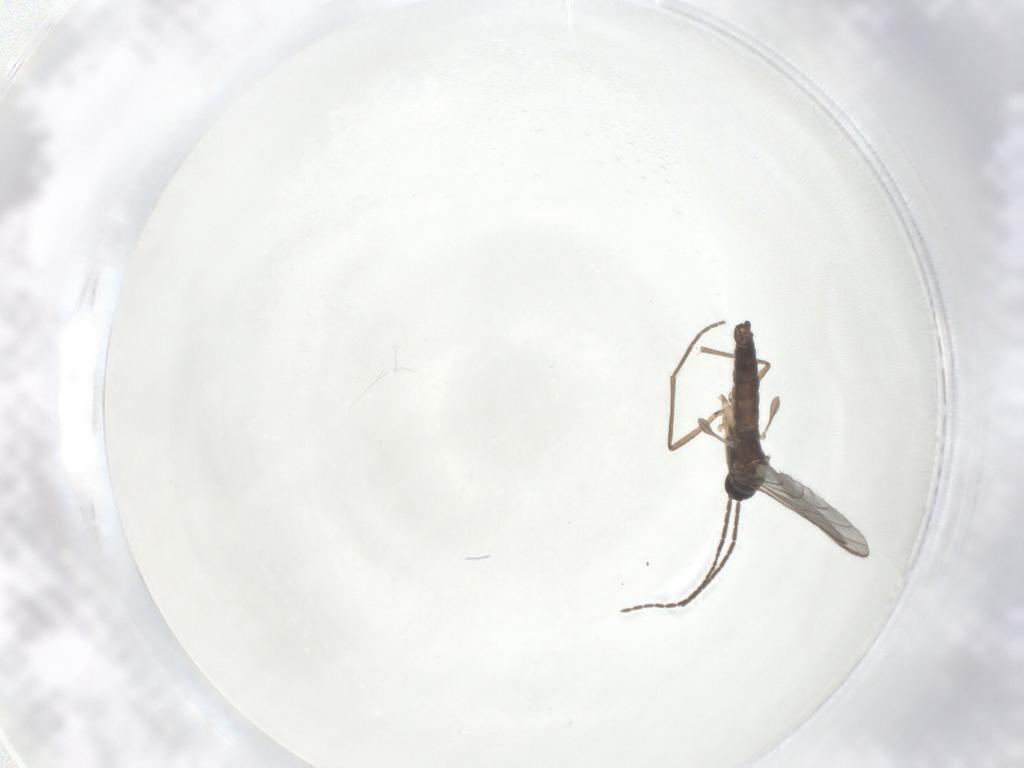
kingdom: Animalia
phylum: Arthropoda
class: Insecta
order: Diptera
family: Sciaridae
